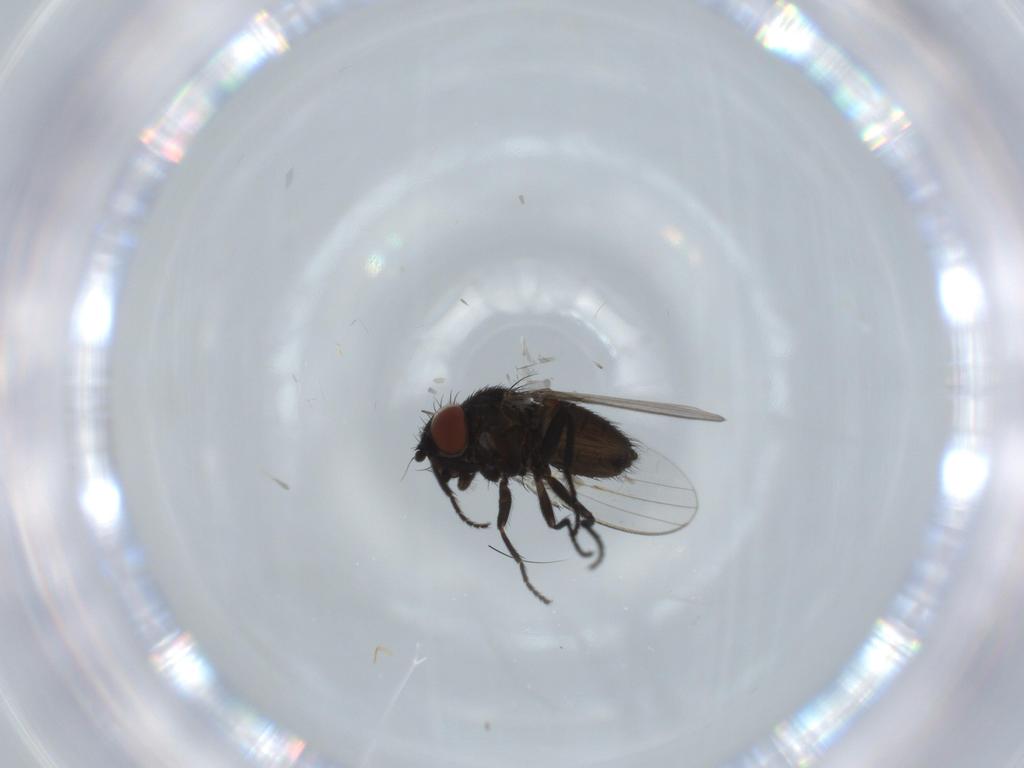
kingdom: Animalia
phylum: Arthropoda
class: Insecta
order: Diptera
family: Milichiidae
